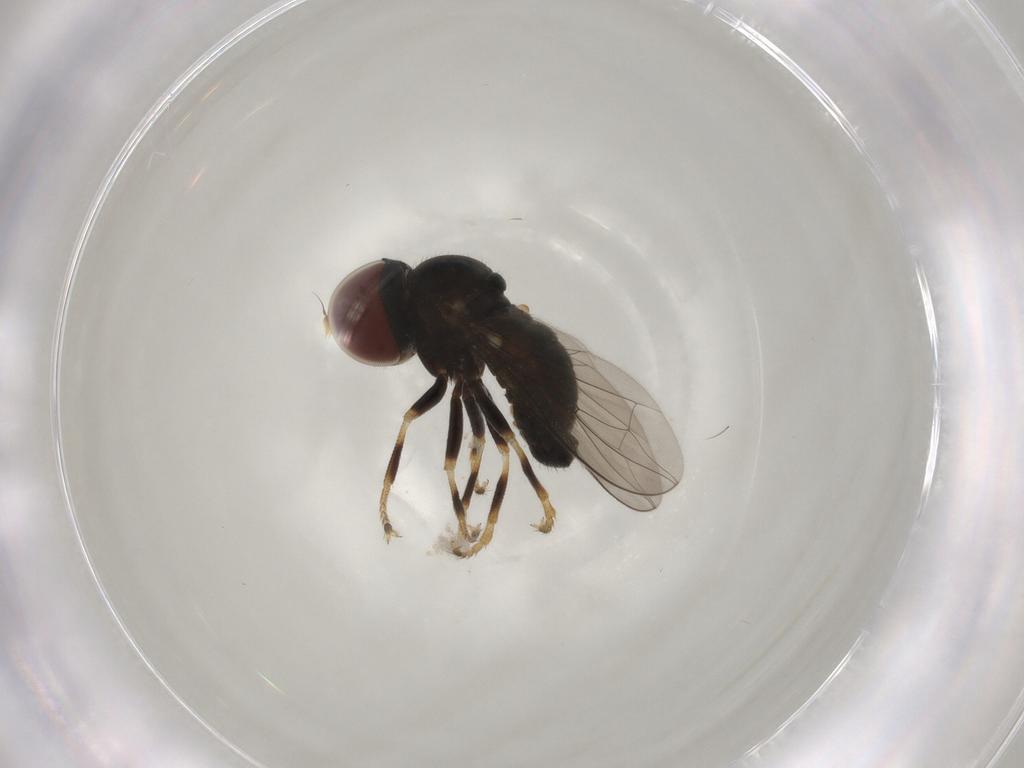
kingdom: Animalia
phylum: Arthropoda
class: Insecta
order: Diptera
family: Pipunculidae
